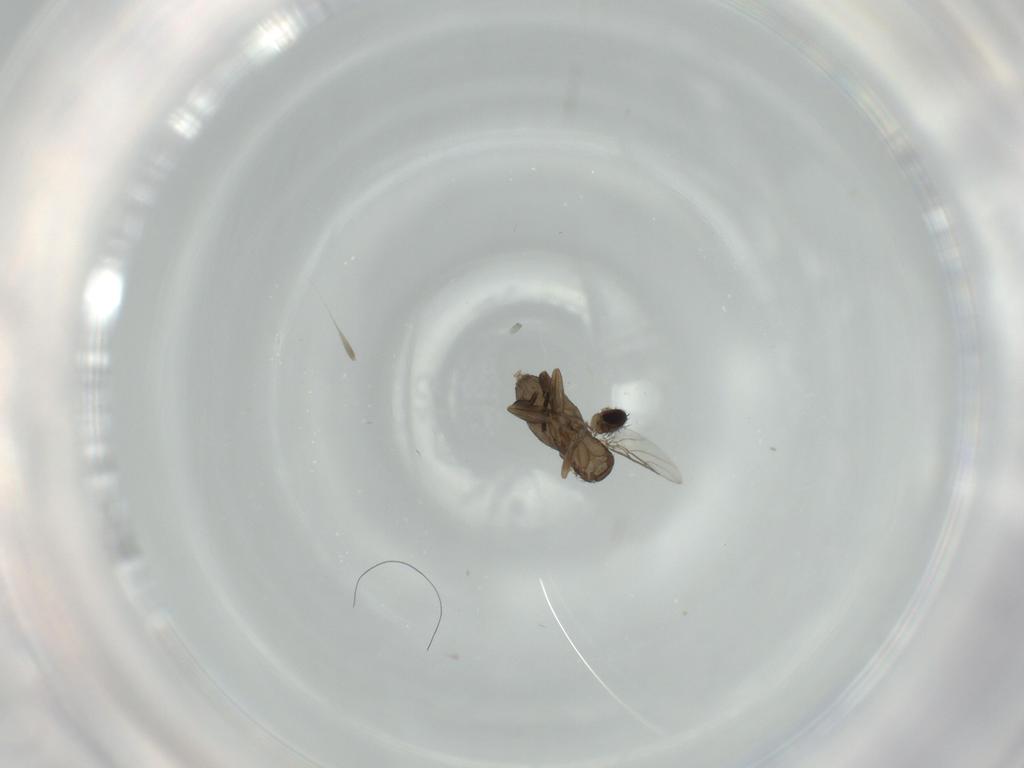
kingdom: Animalia
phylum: Arthropoda
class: Insecta
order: Diptera
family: Phoridae
